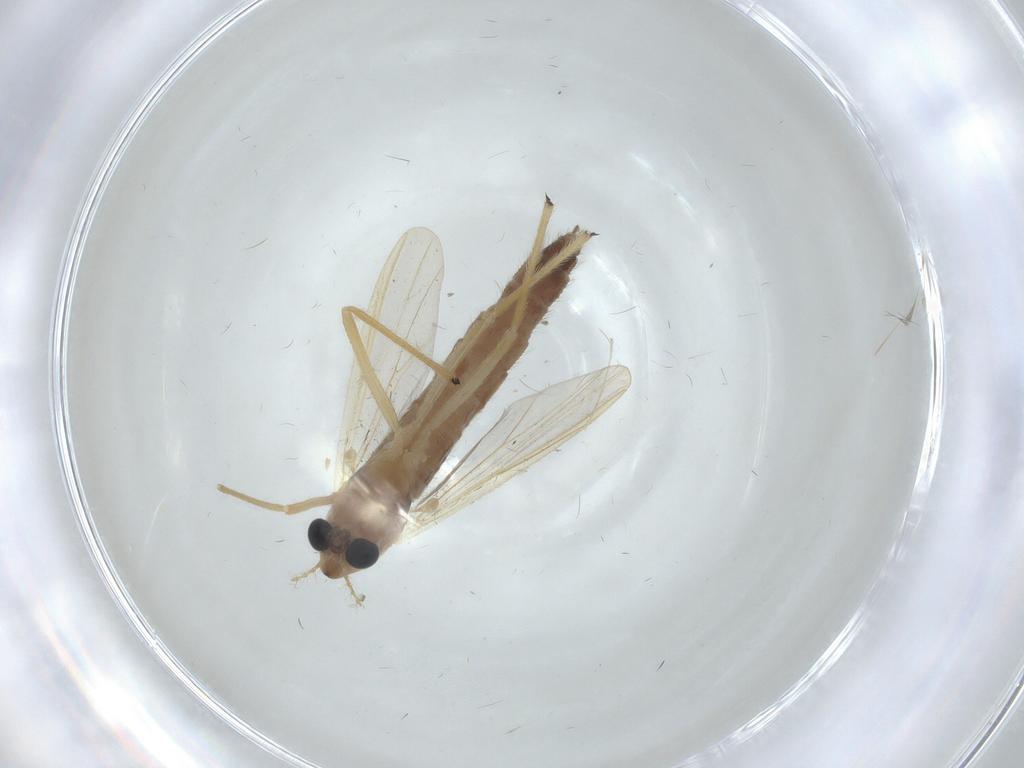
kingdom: Animalia
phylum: Arthropoda
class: Insecta
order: Diptera
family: Chironomidae
